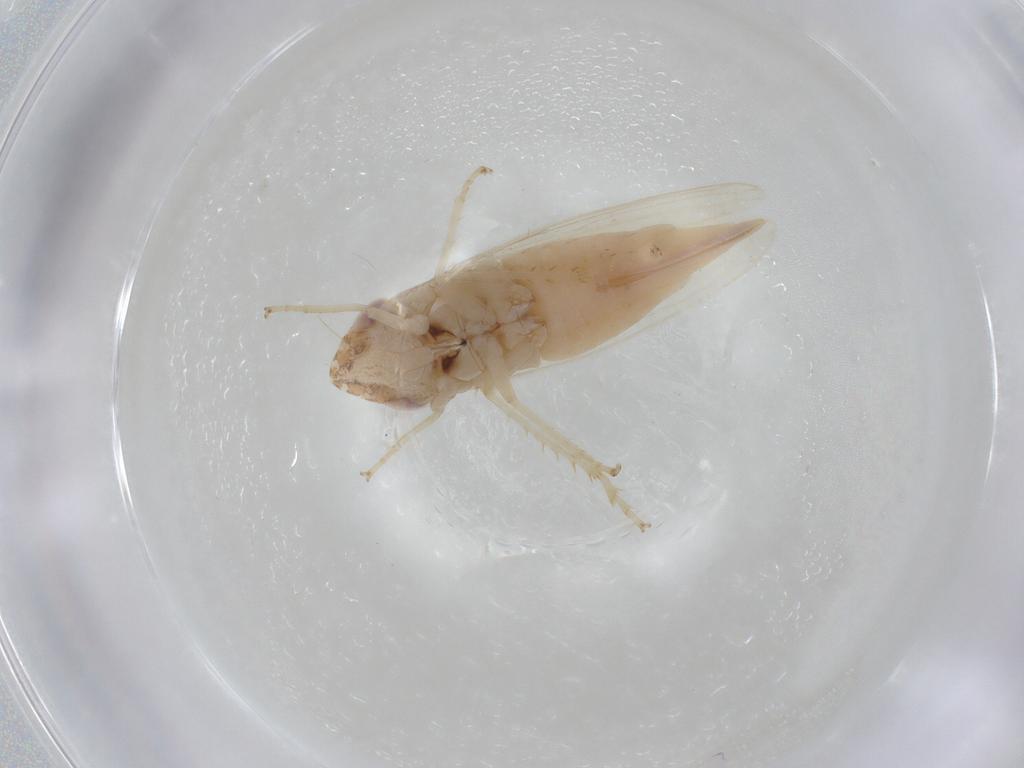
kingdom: Animalia
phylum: Arthropoda
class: Insecta
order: Hemiptera
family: Cicadellidae
